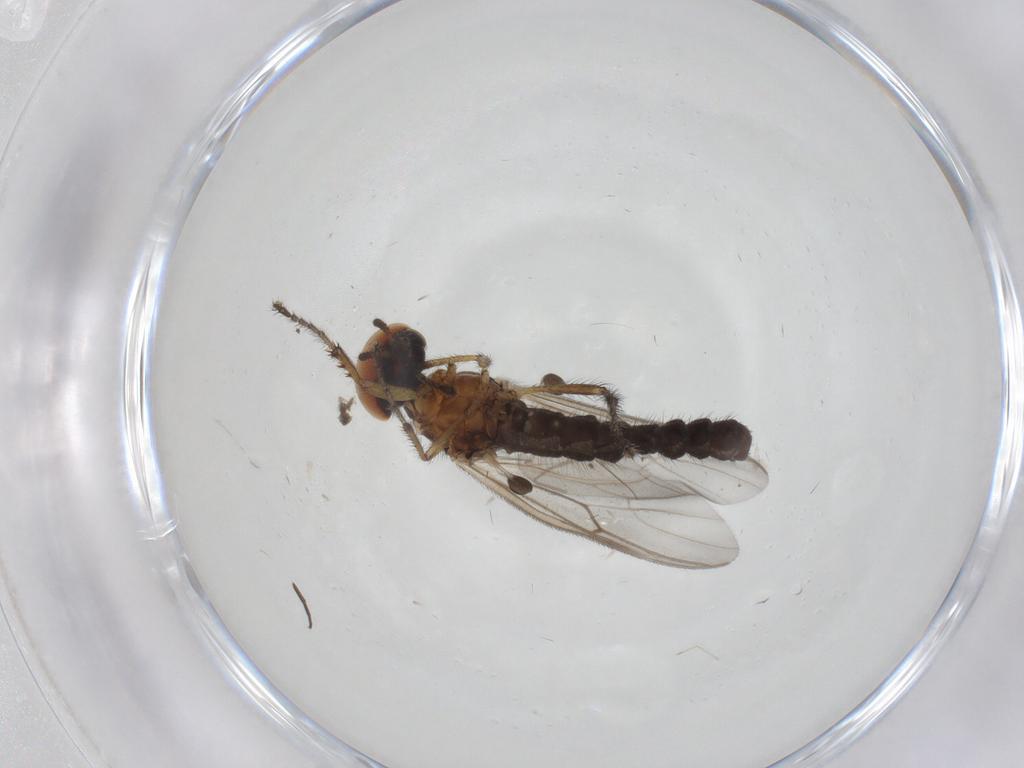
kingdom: Animalia
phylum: Arthropoda
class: Insecta
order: Diptera
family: Bibionidae
